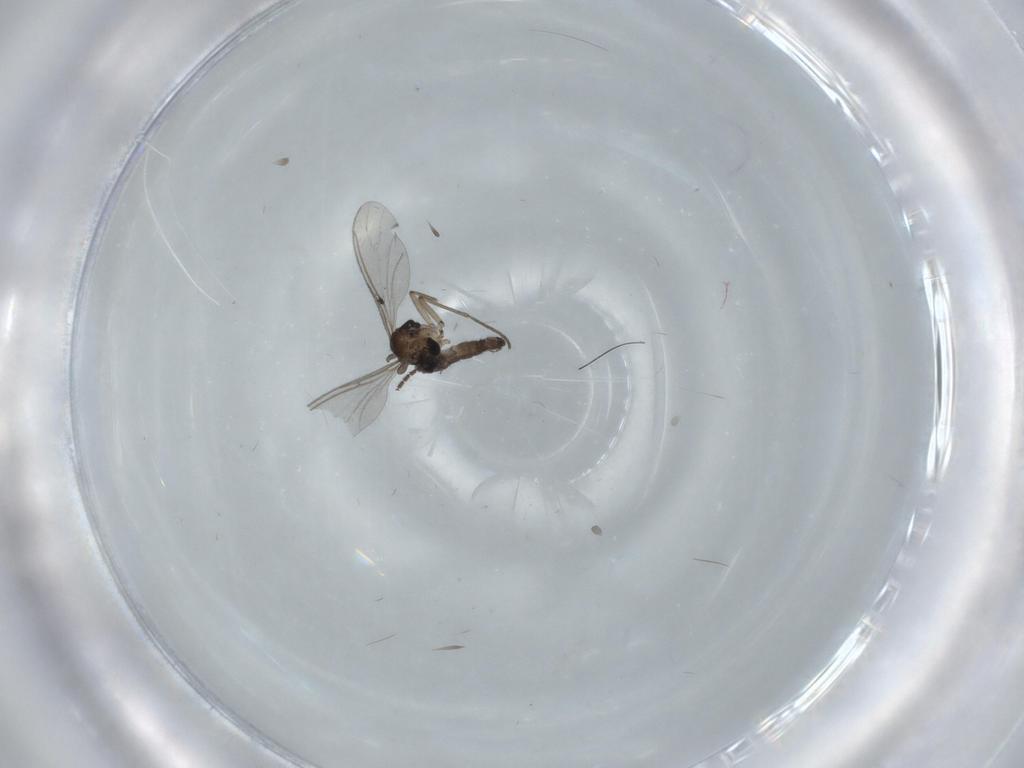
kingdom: Animalia
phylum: Arthropoda
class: Insecta
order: Diptera
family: Sciaridae
